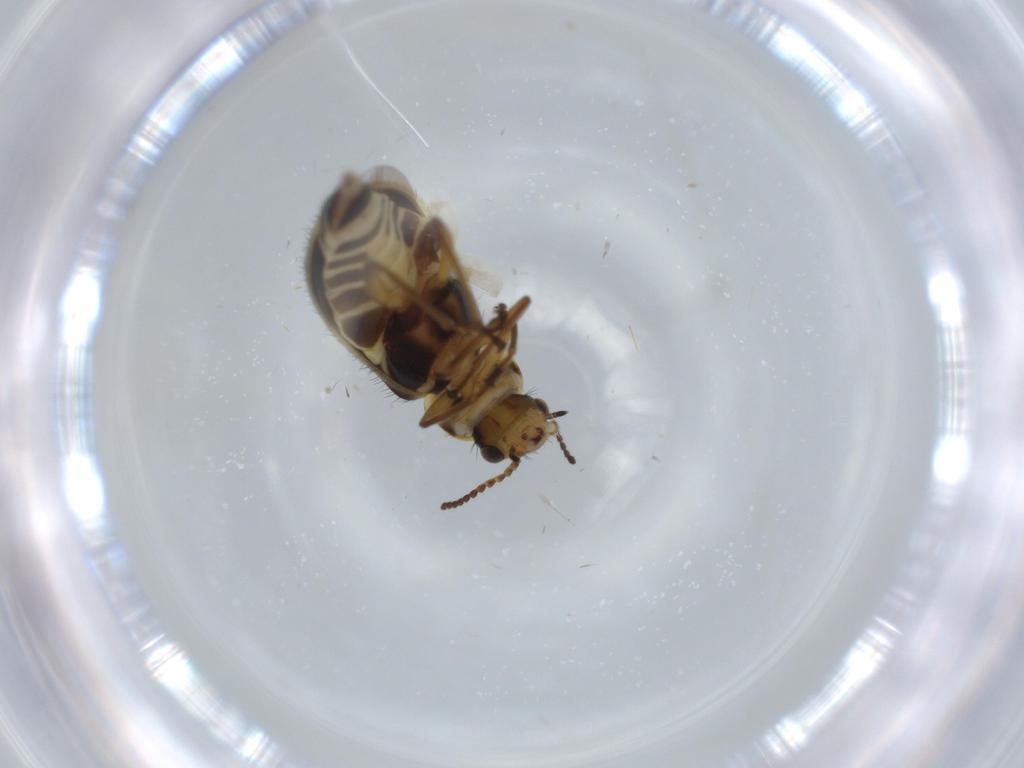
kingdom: Animalia
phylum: Arthropoda
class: Insecta
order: Coleoptera
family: Melyridae
